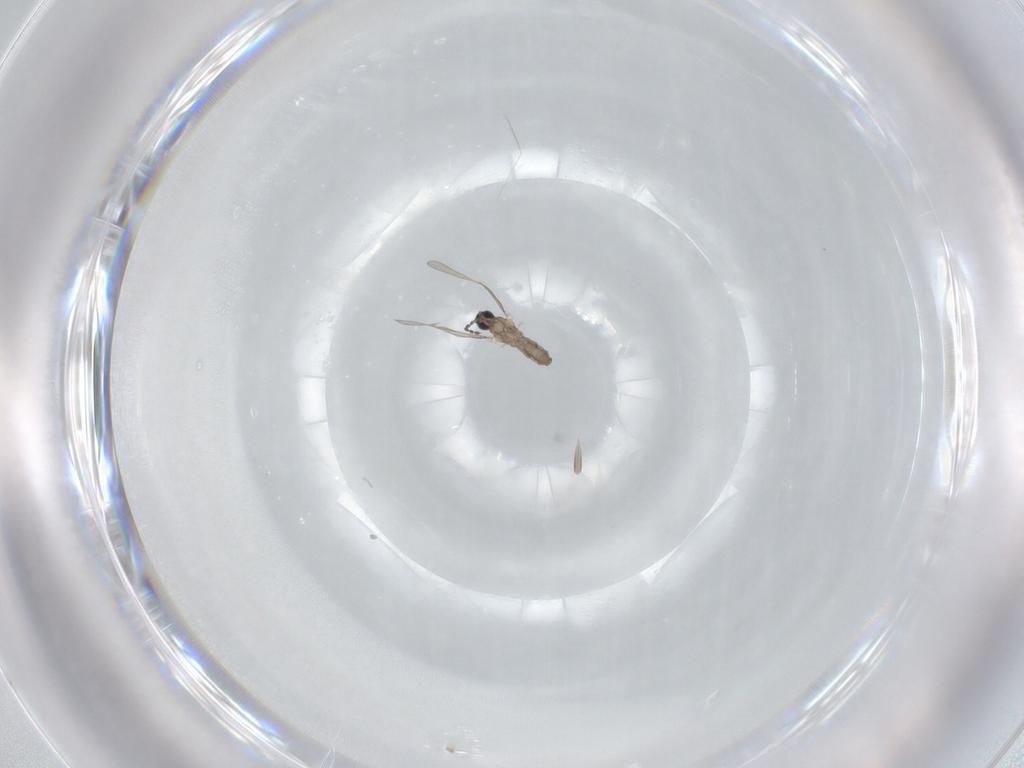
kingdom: Animalia
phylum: Arthropoda
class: Insecta
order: Diptera
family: Cecidomyiidae
